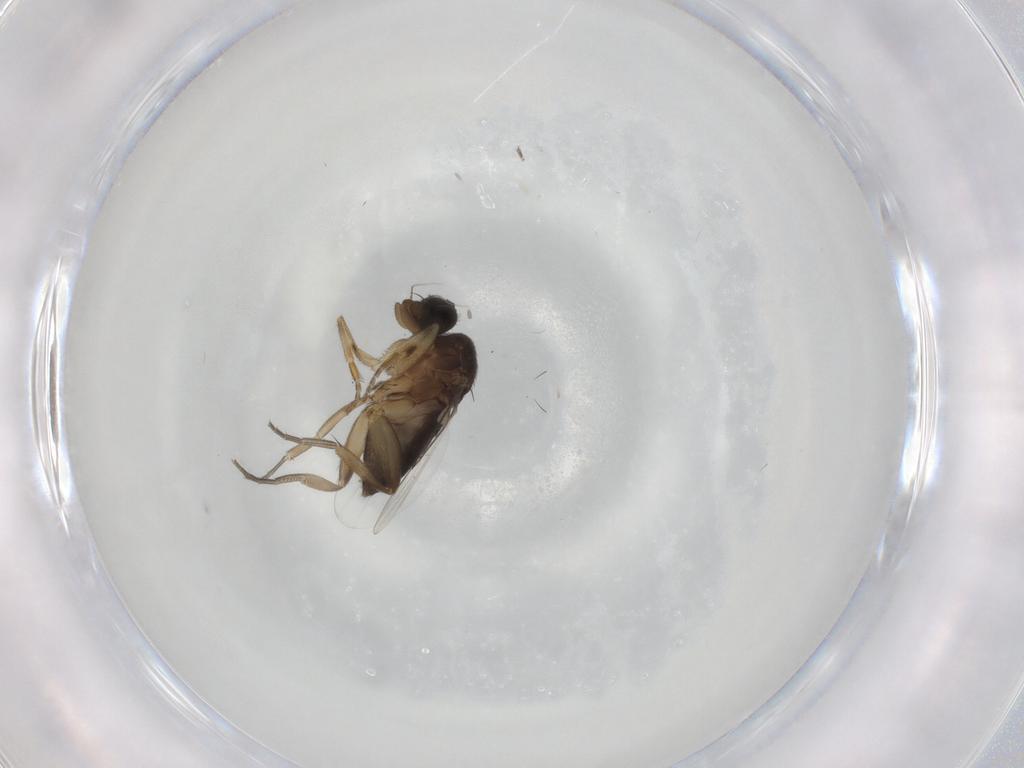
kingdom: Animalia
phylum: Arthropoda
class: Insecta
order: Diptera
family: Phoridae
